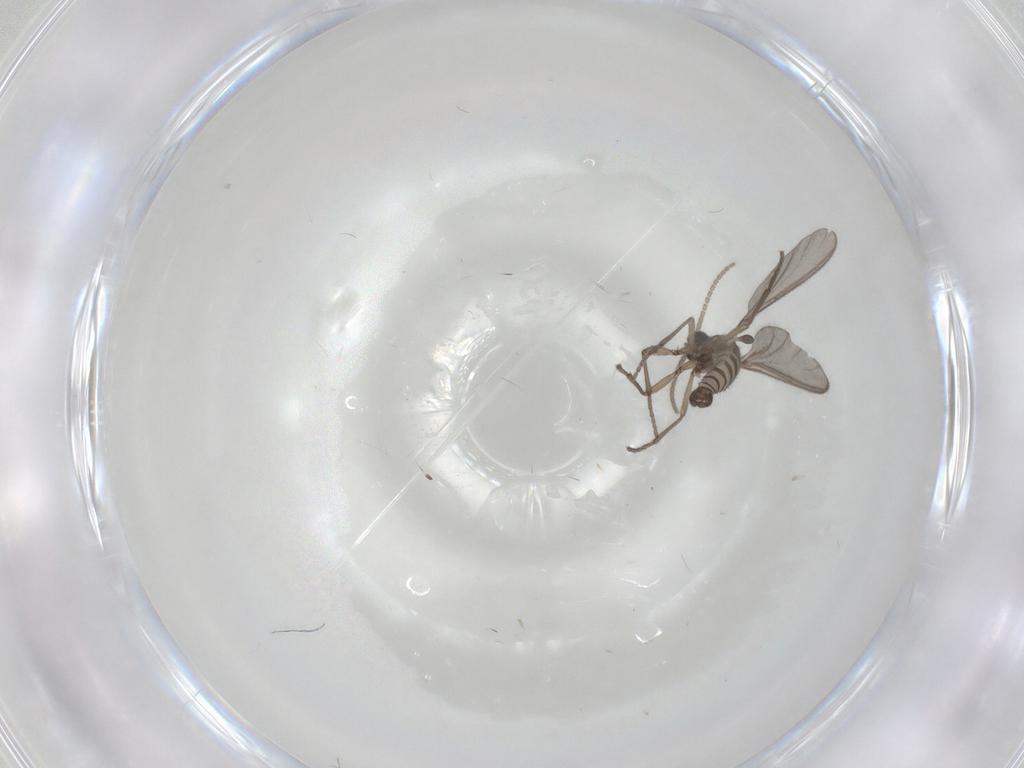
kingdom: Animalia
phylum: Arthropoda
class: Insecta
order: Diptera
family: Sciaridae
